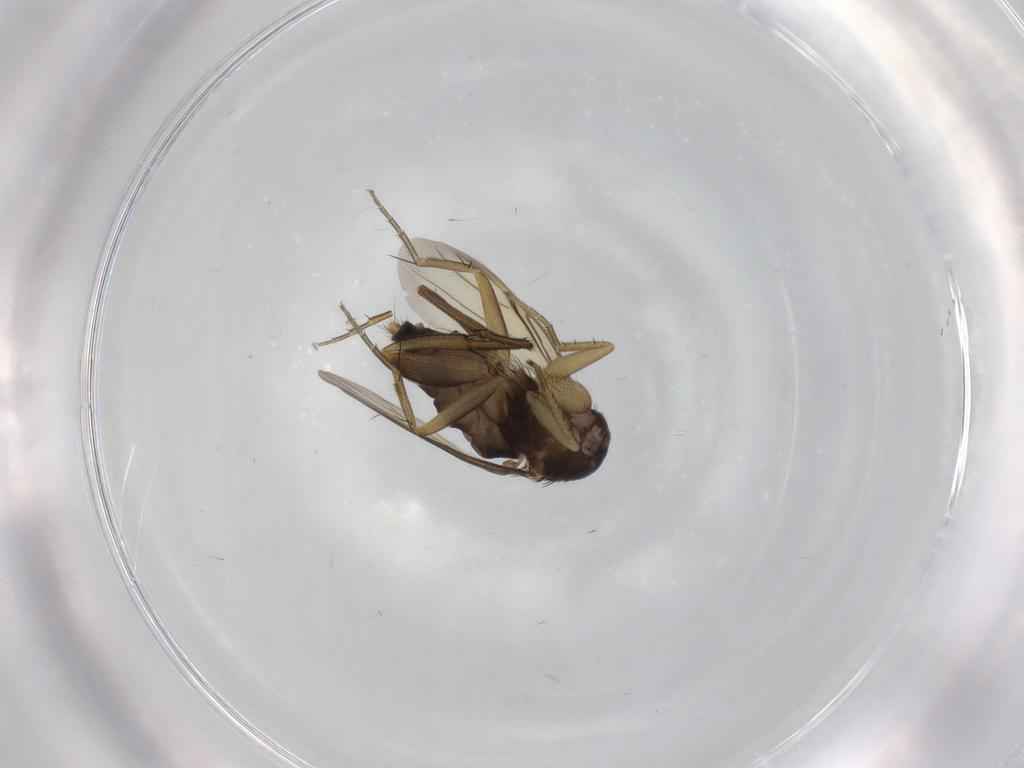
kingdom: Animalia
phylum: Arthropoda
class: Insecta
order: Diptera
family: Phoridae
